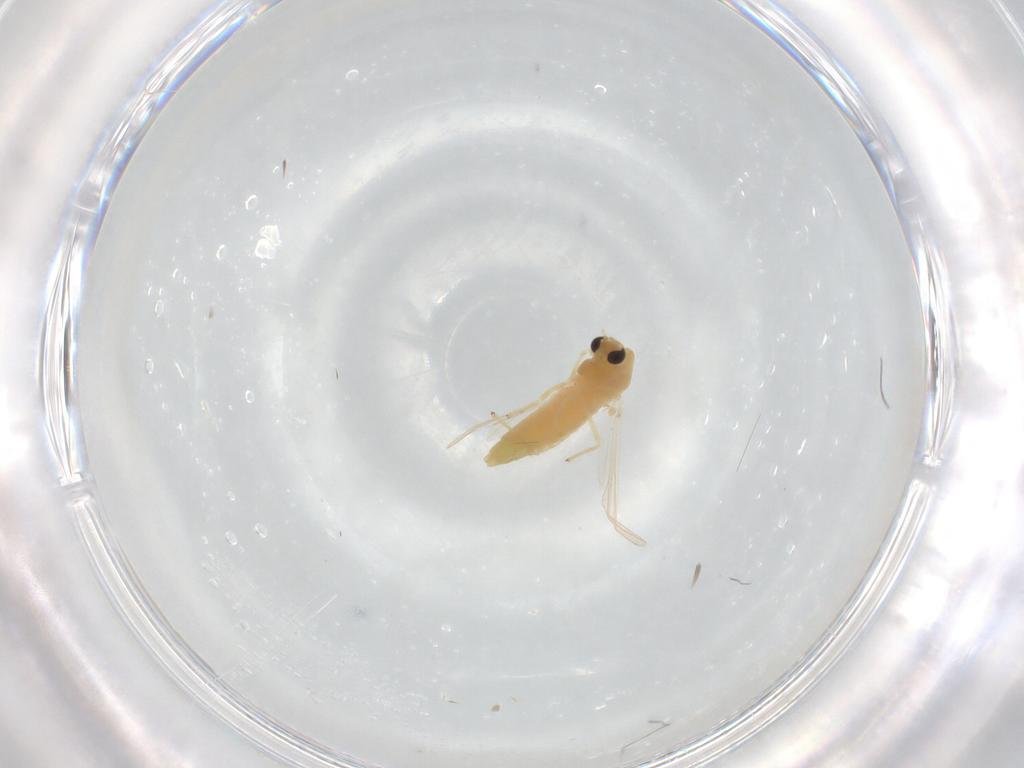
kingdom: Animalia
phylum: Arthropoda
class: Insecta
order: Diptera
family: Chironomidae
